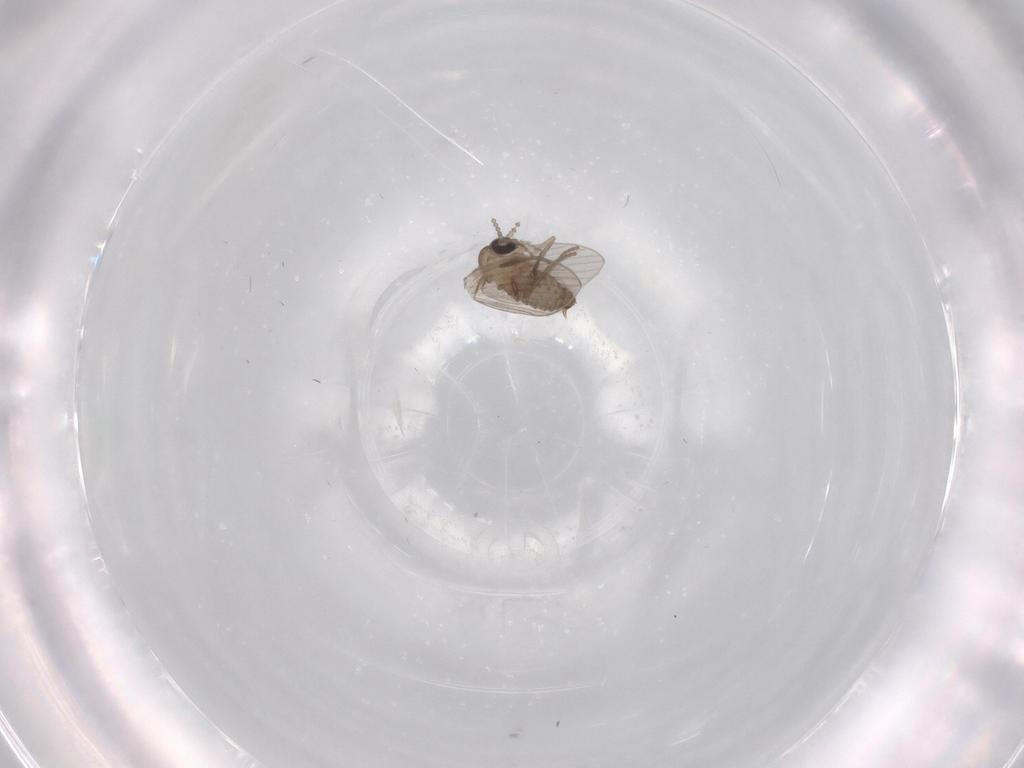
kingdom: Animalia
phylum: Arthropoda
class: Insecta
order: Diptera
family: Psychodidae
